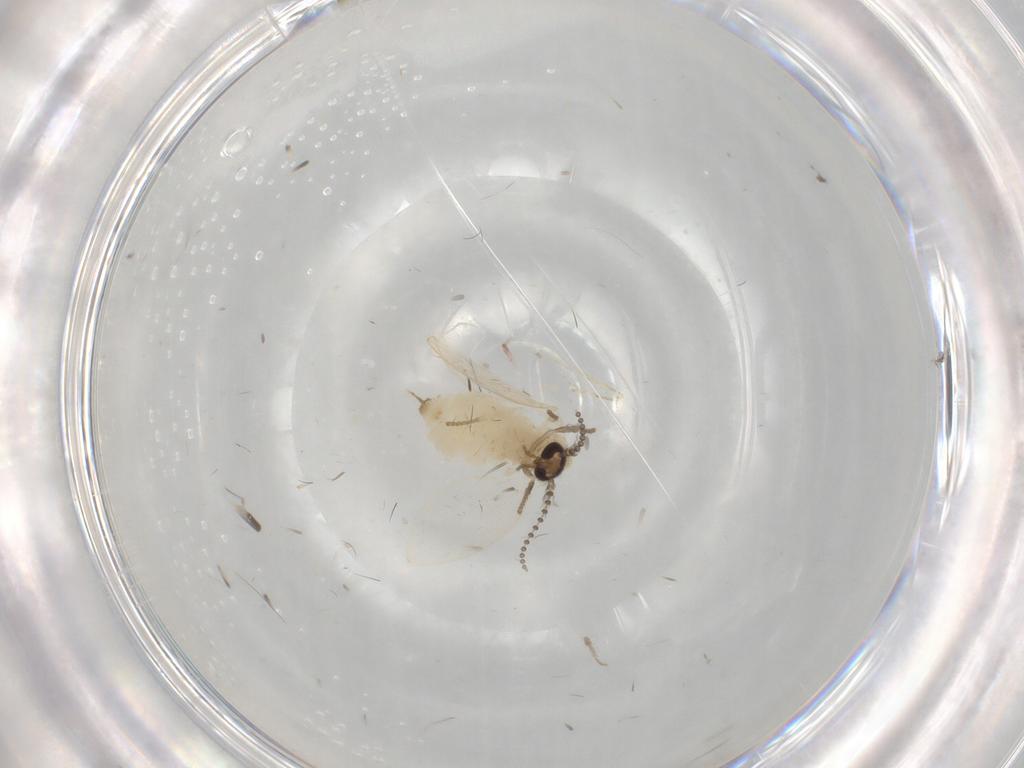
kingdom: Animalia
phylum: Arthropoda
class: Insecta
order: Diptera
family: Psychodidae
